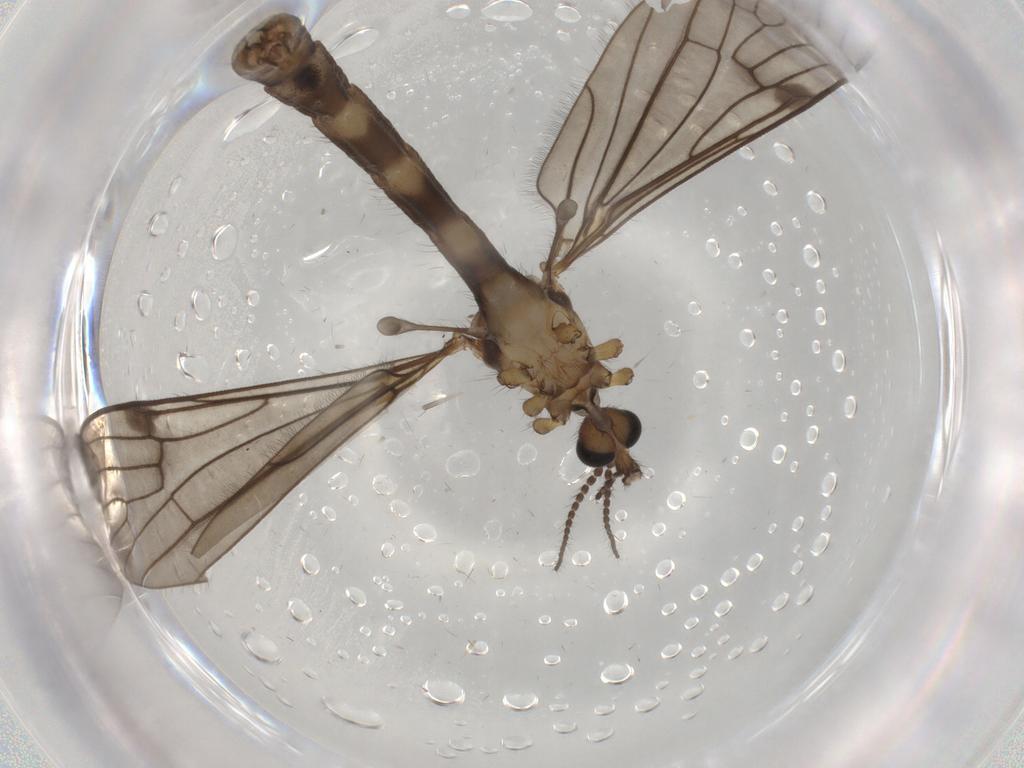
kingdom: Animalia
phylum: Arthropoda
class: Insecta
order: Diptera
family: Limoniidae
